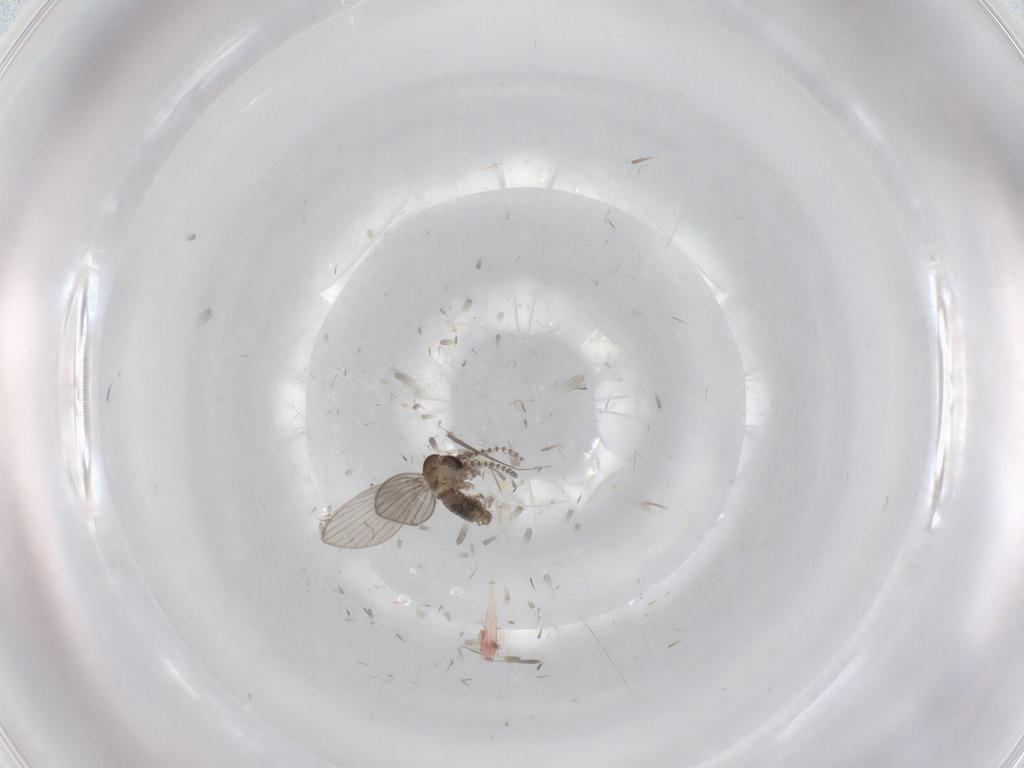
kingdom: Animalia
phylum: Arthropoda
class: Insecta
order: Diptera
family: Psychodidae
